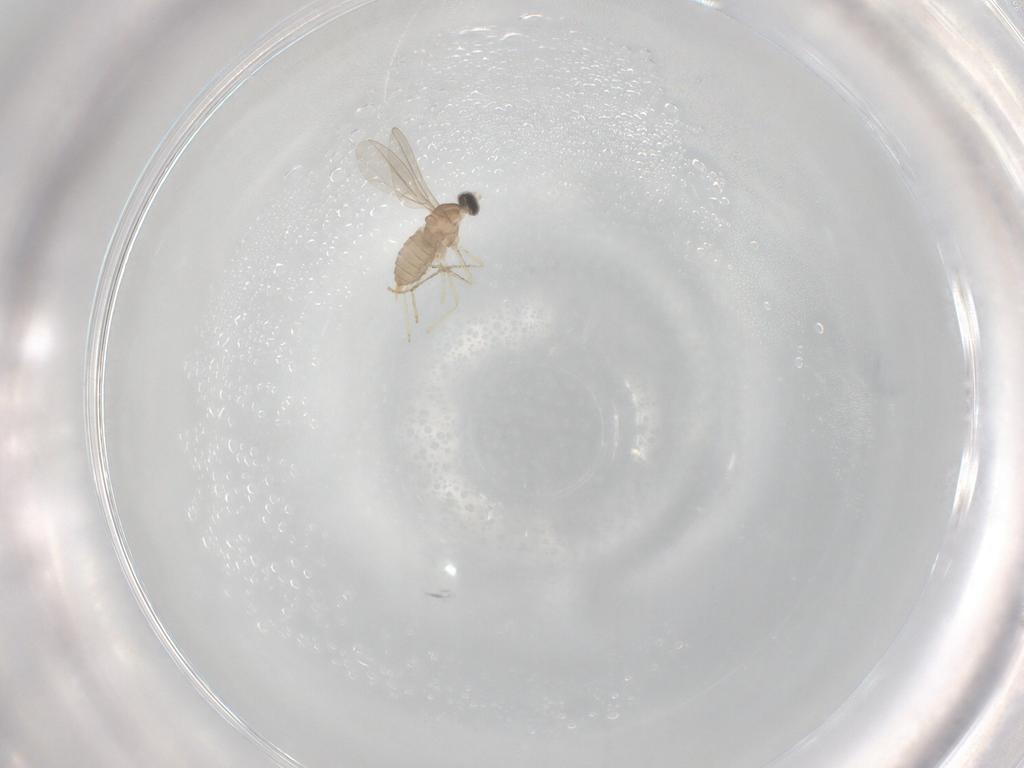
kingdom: Animalia
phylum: Arthropoda
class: Insecta
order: Diptera
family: Cecidomyiidae
